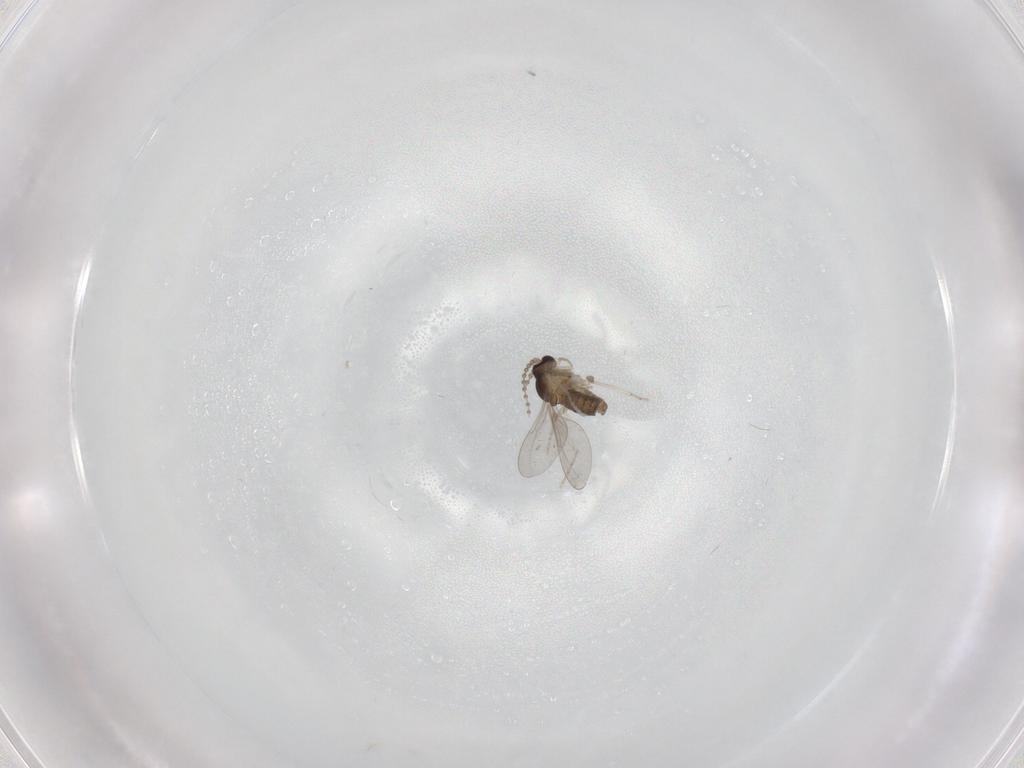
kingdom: Animalia
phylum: Arthropoda
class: Insecta
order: Diptera
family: Cecidomyiidae
